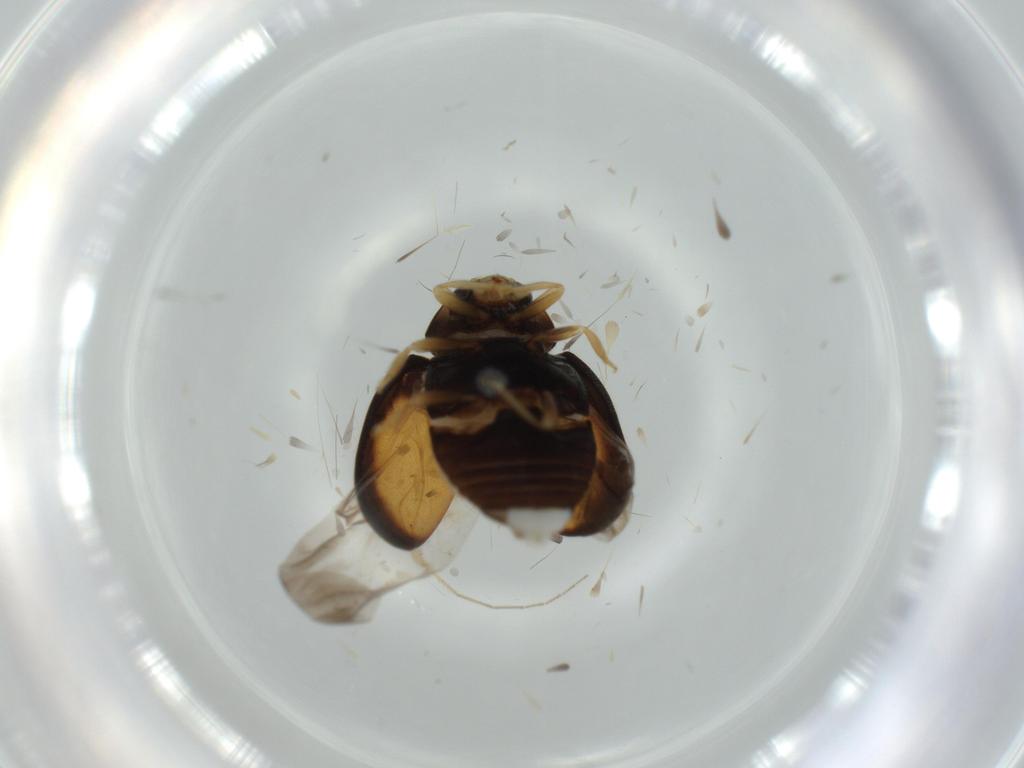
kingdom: Animalia
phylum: Arthropoda
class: Insecta
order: Coleoptera
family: Coccinellidae
